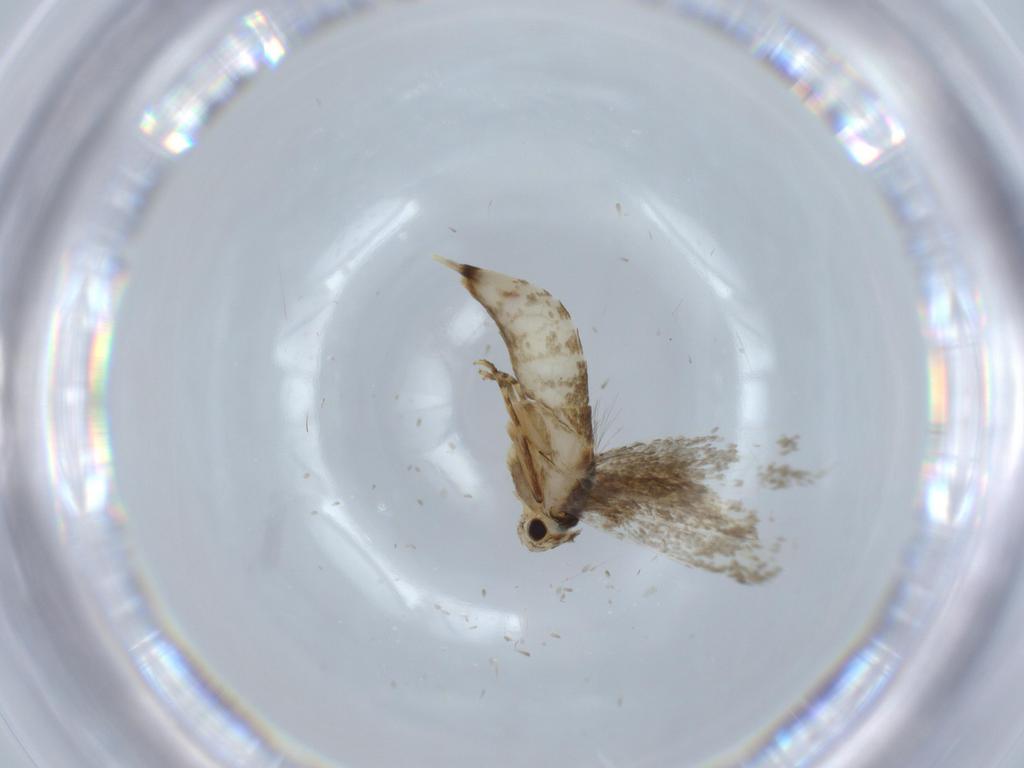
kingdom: Animalia
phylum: Arthropoda
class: Insecta
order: Lepidoptera
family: Tineidae
